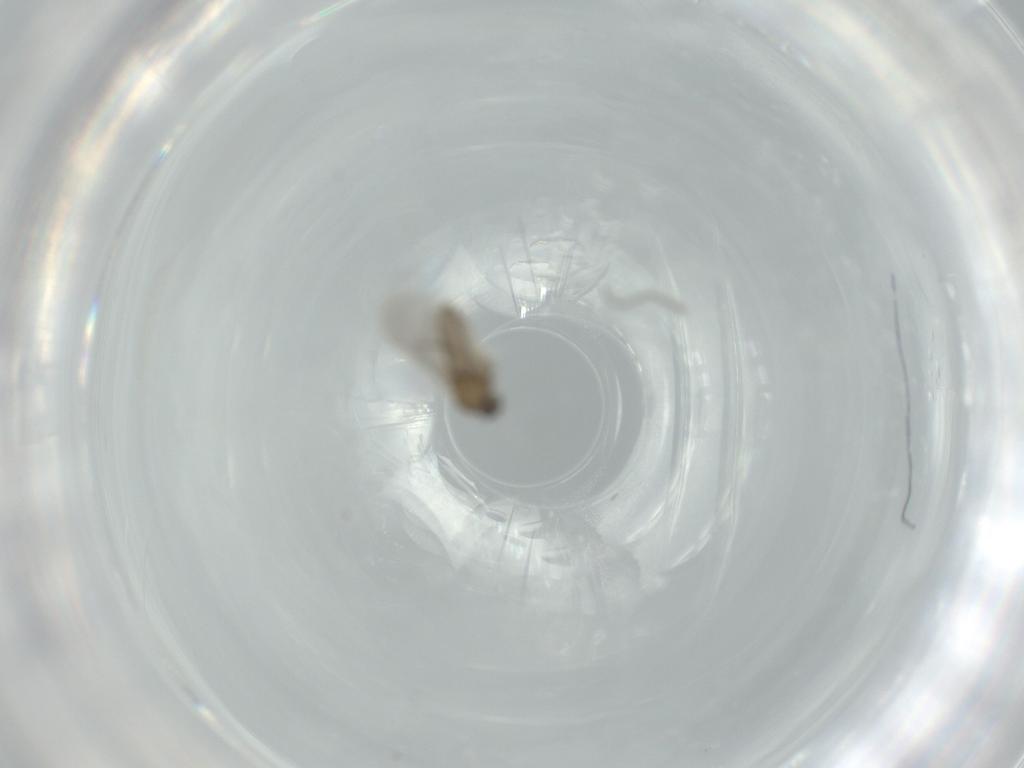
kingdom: Animalia
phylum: Arthropoda
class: Insecta
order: Diptera
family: Cecidomyiidae
